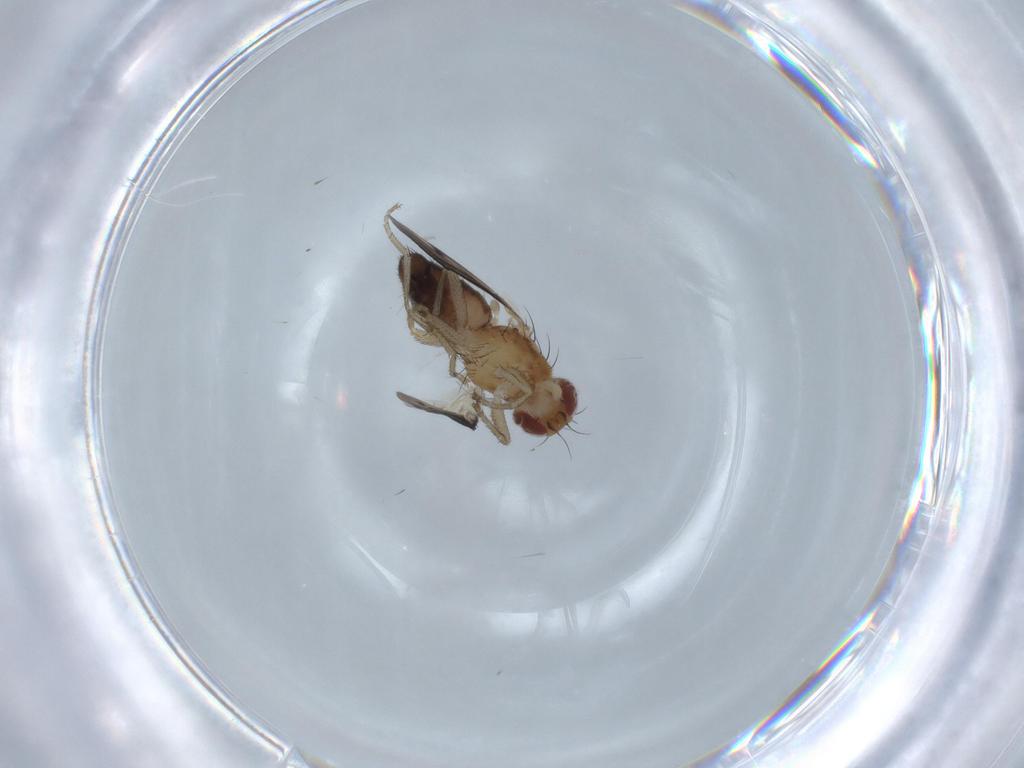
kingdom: Animalia
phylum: Arthropoda
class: Insecta
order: Diptera
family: Heleomyzidae
